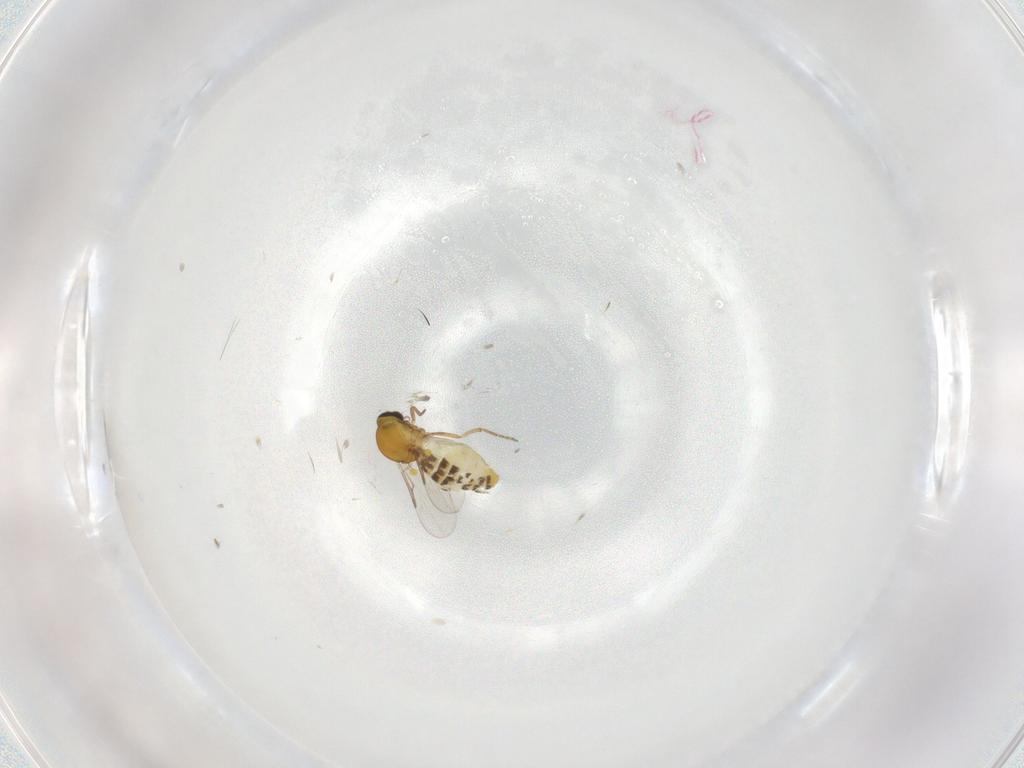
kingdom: Animalia
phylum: Arthropoda
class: Insecta
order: Diptera
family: Ceratopogonidae
